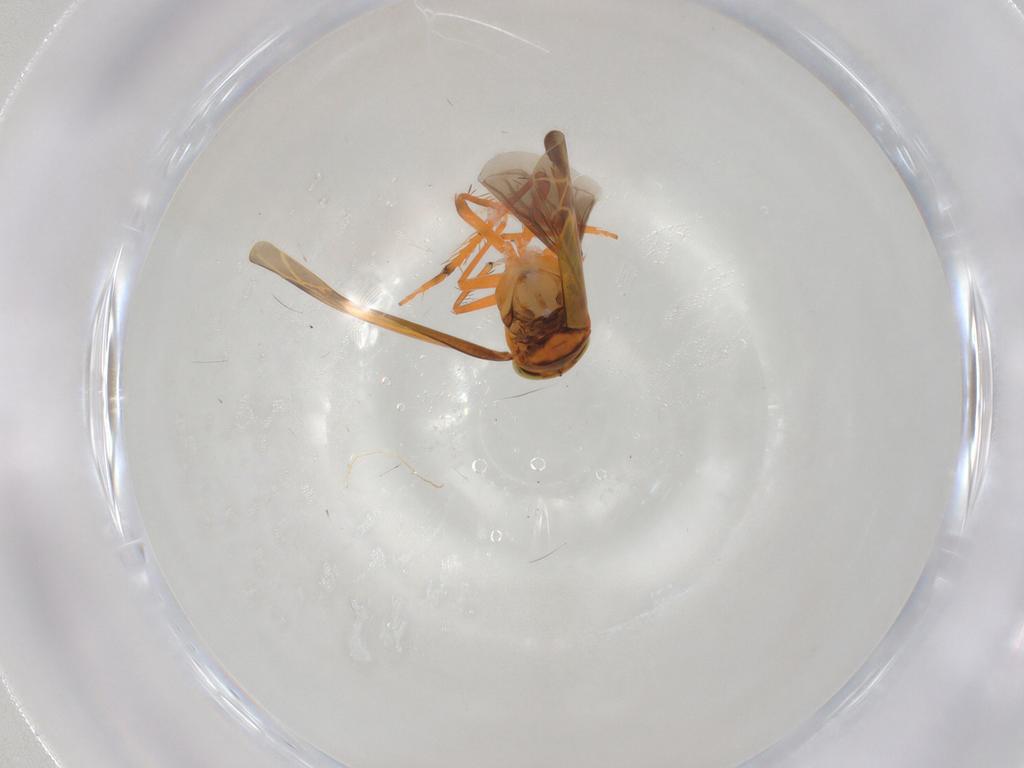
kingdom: Animalia
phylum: Arthropoda
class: Insecta
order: Hemiptera
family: Cicadellidae
